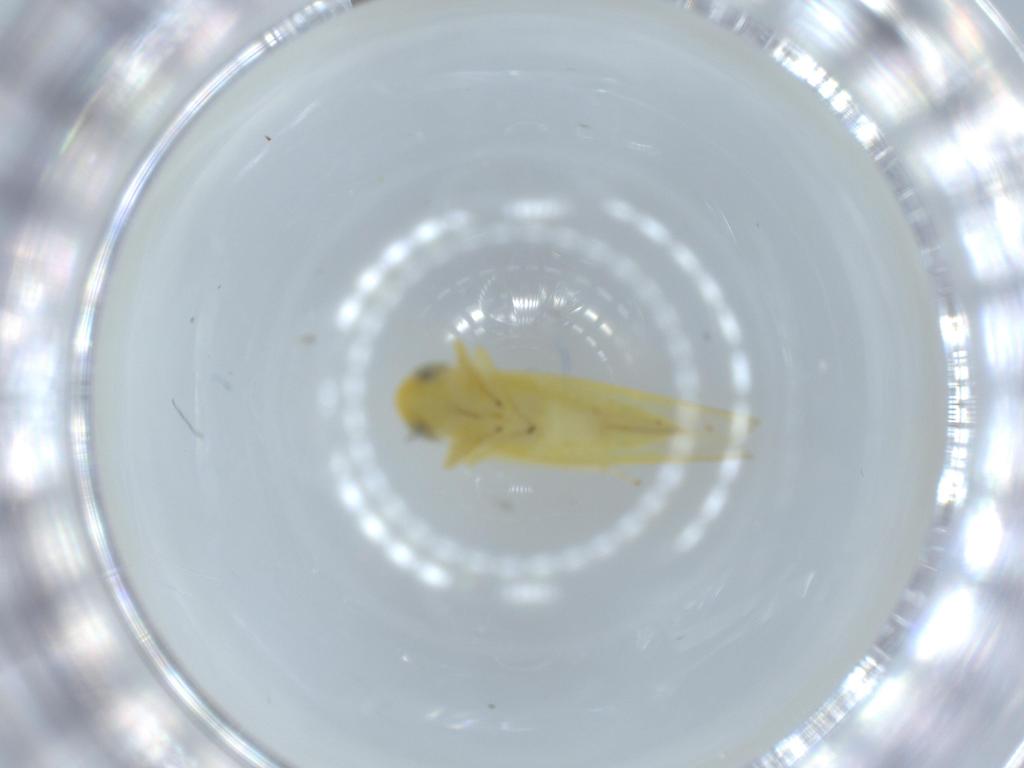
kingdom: Animalia
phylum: Arthropoda
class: Insecta
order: Hemiptera
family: Cicadellidae
